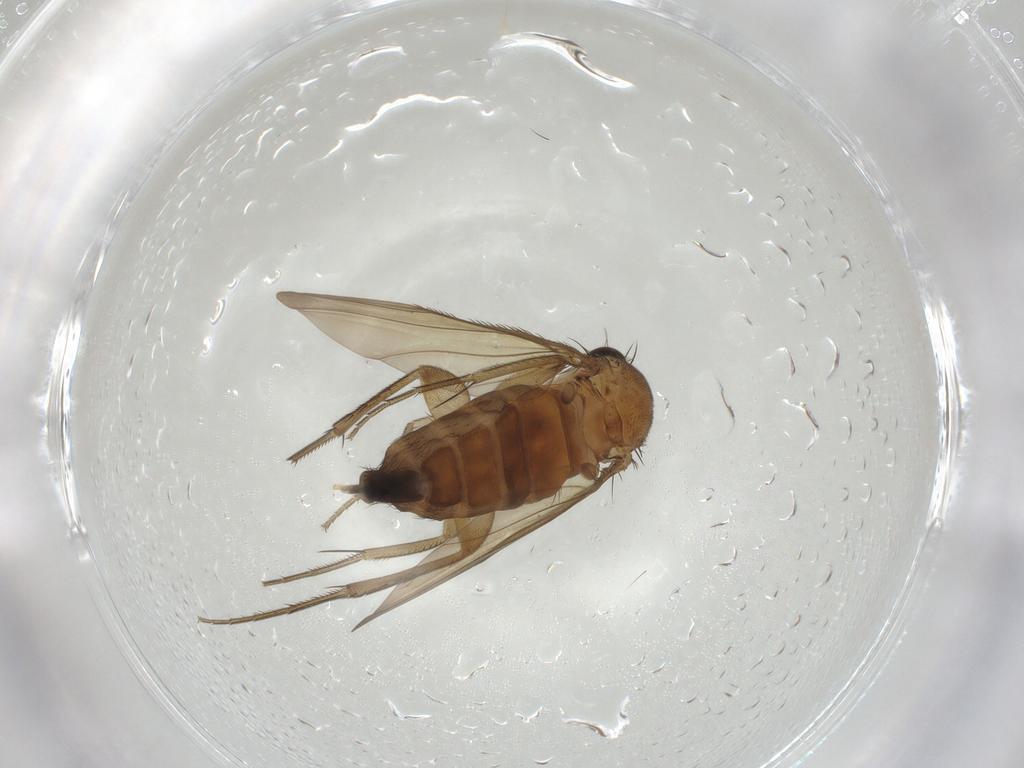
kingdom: Animalia
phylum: Arthropoda
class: Insecta
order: Diptera
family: Phoridae
